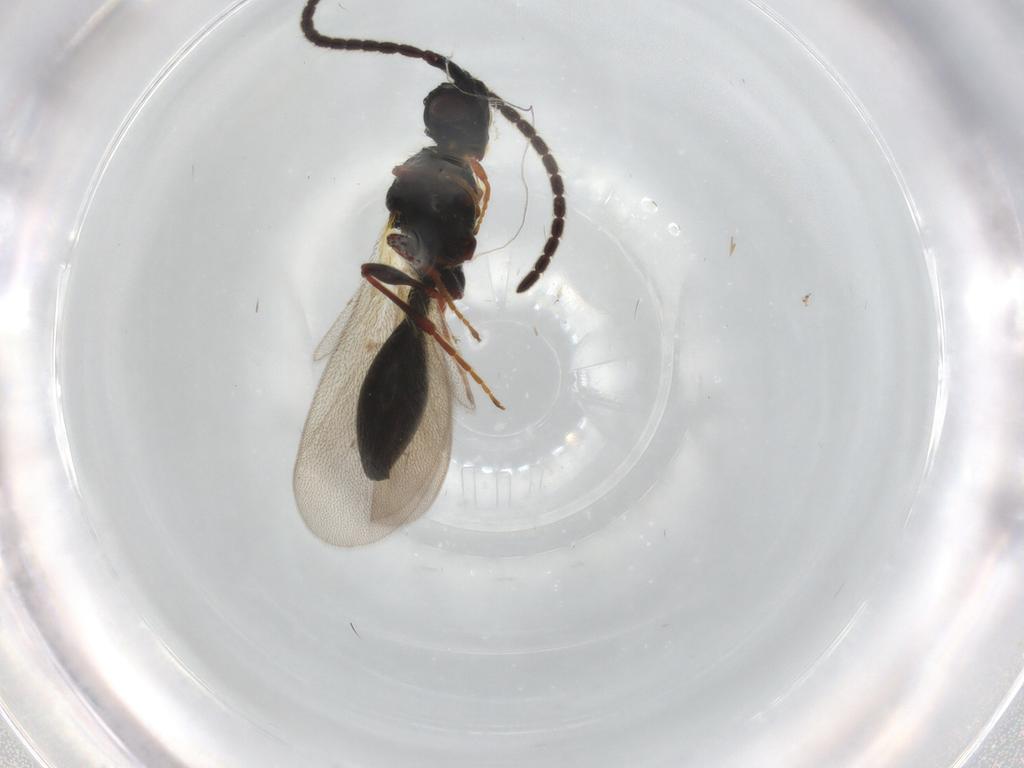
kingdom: Animalia
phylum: Arthropoda
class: Insecta
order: Hymenoptera
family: Diapriidae
